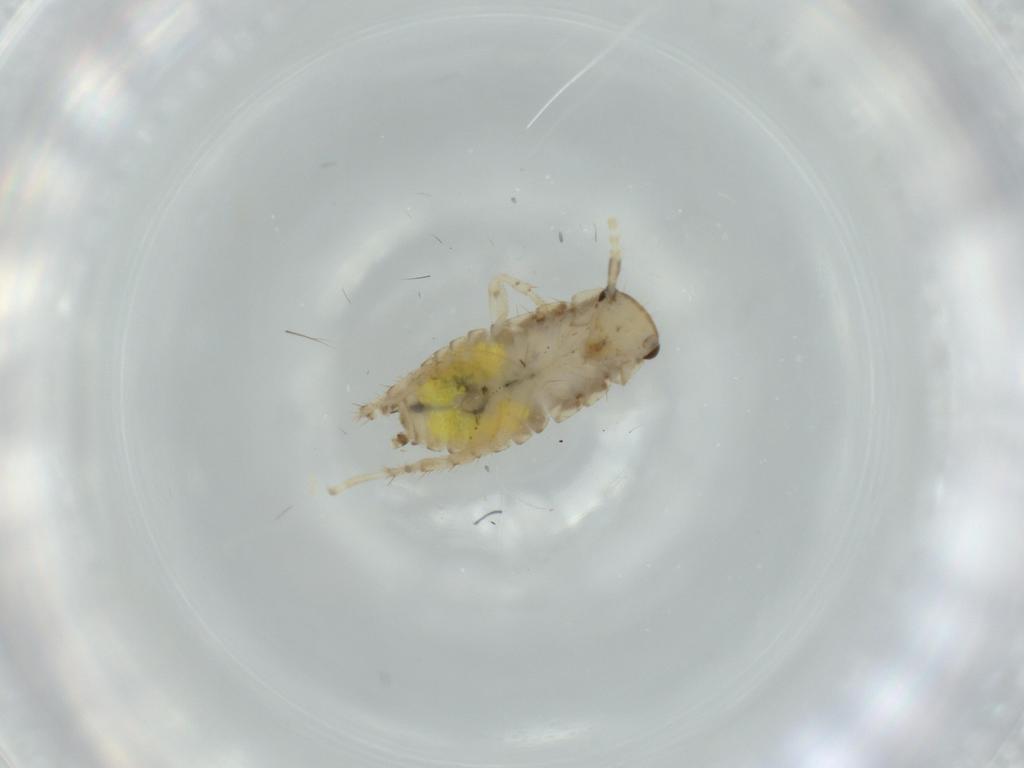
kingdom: Animalia
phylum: Arthropoda
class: Insecta
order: Blattodea
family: Ectobiidae
